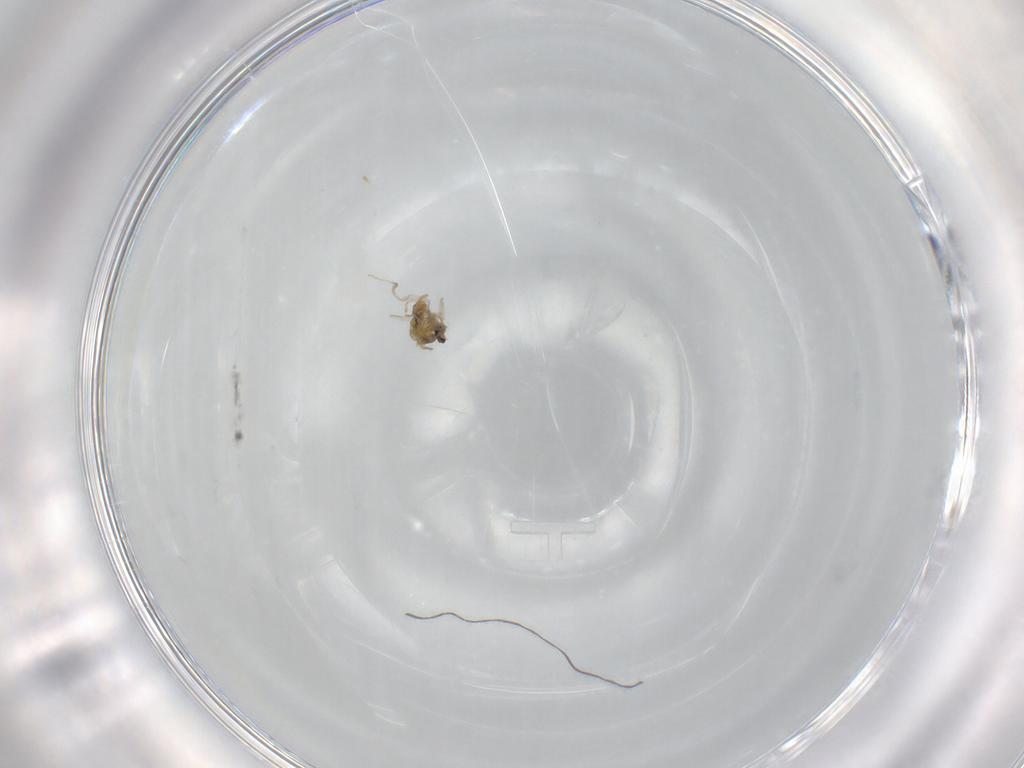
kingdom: Animalia
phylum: Arthropoda
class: Insecta
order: Diptera
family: Cecidomyiidae
